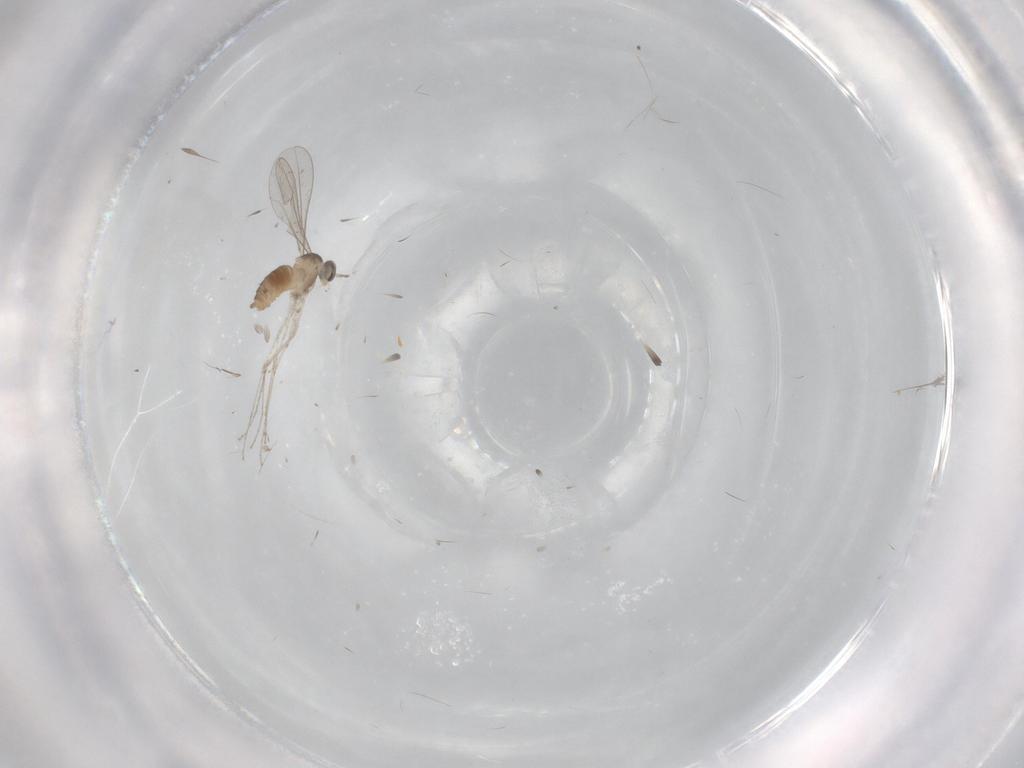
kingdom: Animalia
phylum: Arthropoda
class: Insecta
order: Diptera
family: Cecidomyiidae
